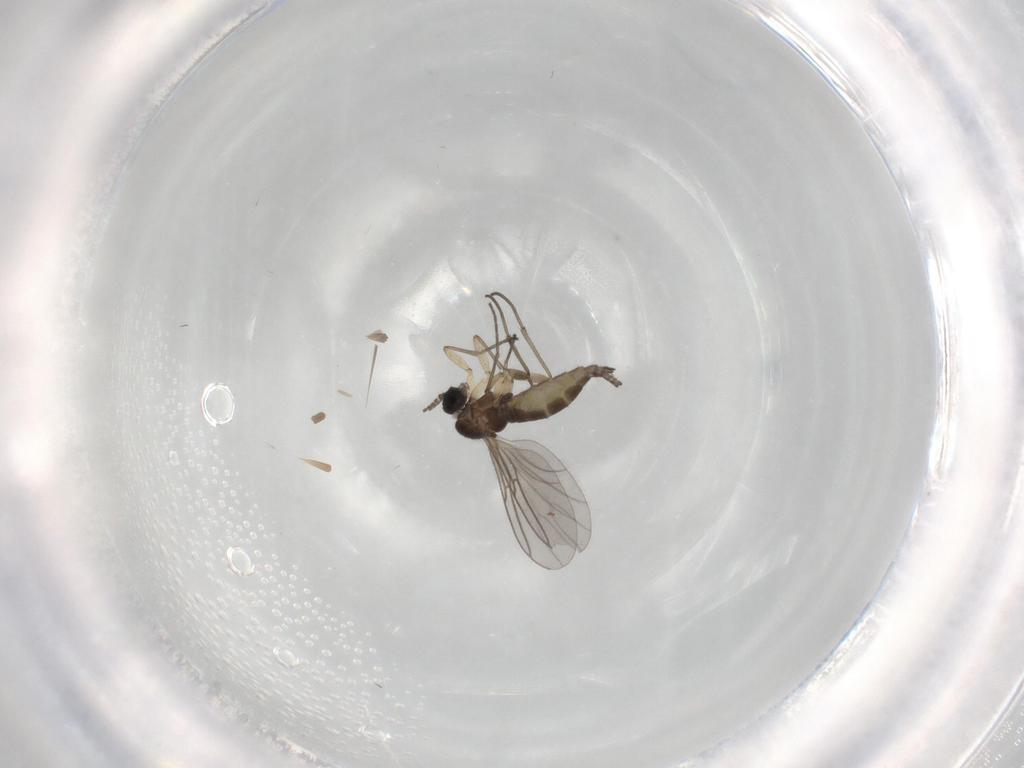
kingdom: Animalia
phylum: Arthropoda
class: Insecta
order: Diptera
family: Sciaridae
